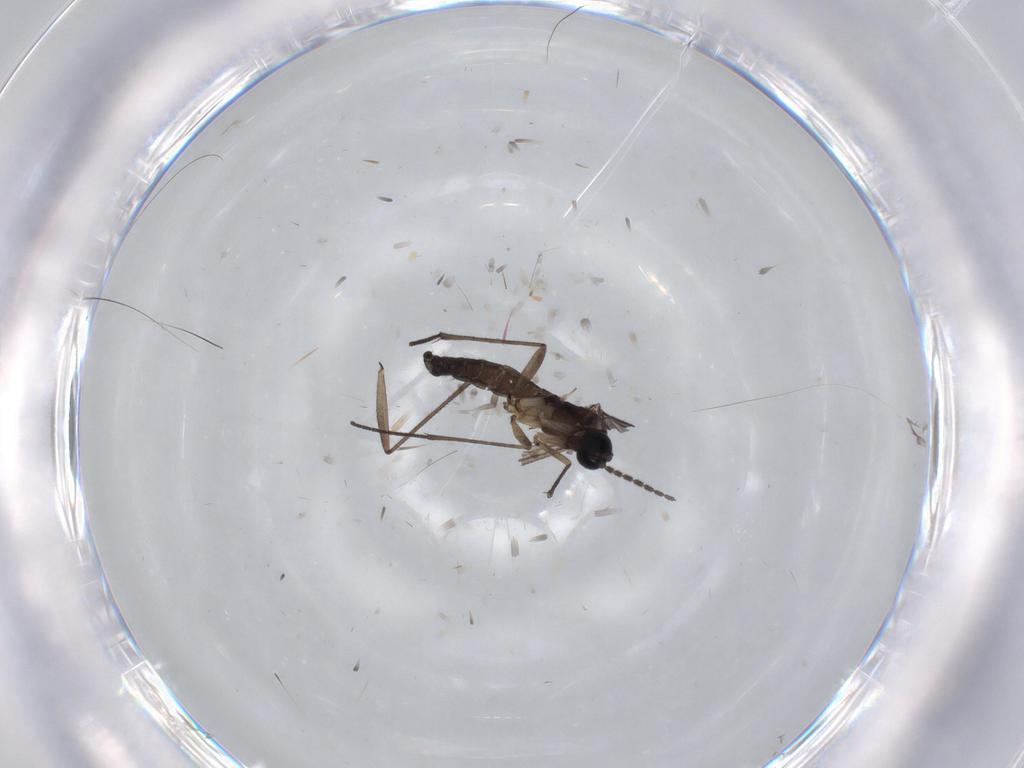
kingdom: Animalia
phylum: Arthropoda
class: Insecta
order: Diptera
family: Sciaridae
